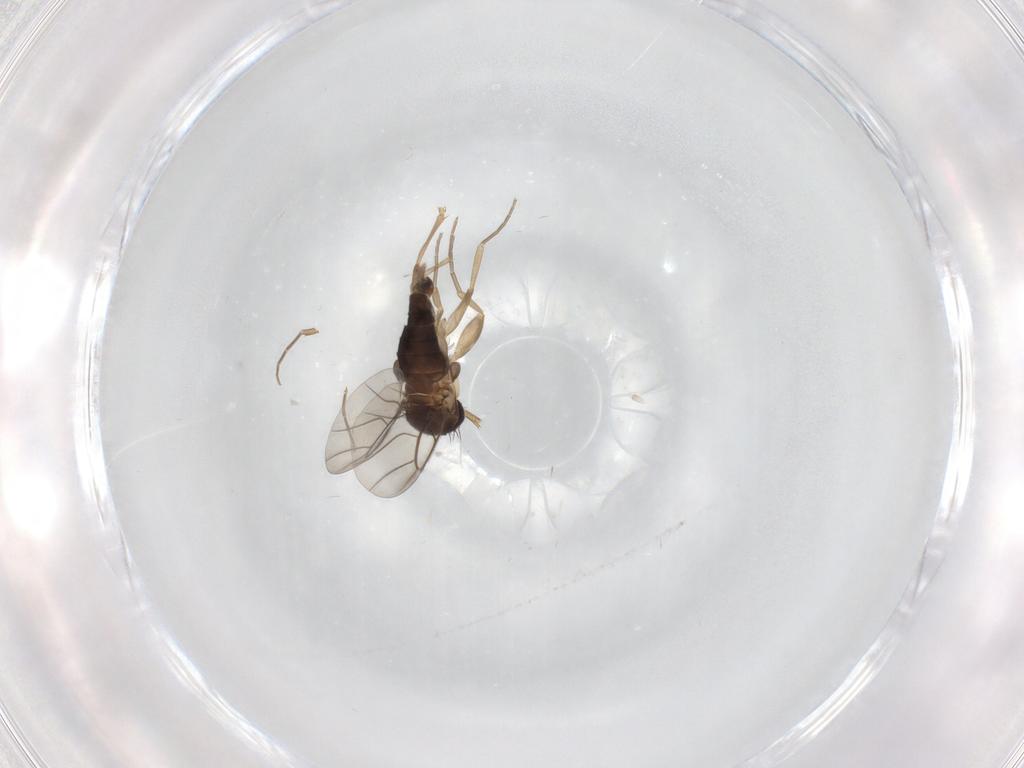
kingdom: Animalia
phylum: Arthropoda
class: Insecta
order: Diptera
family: Phoridae
